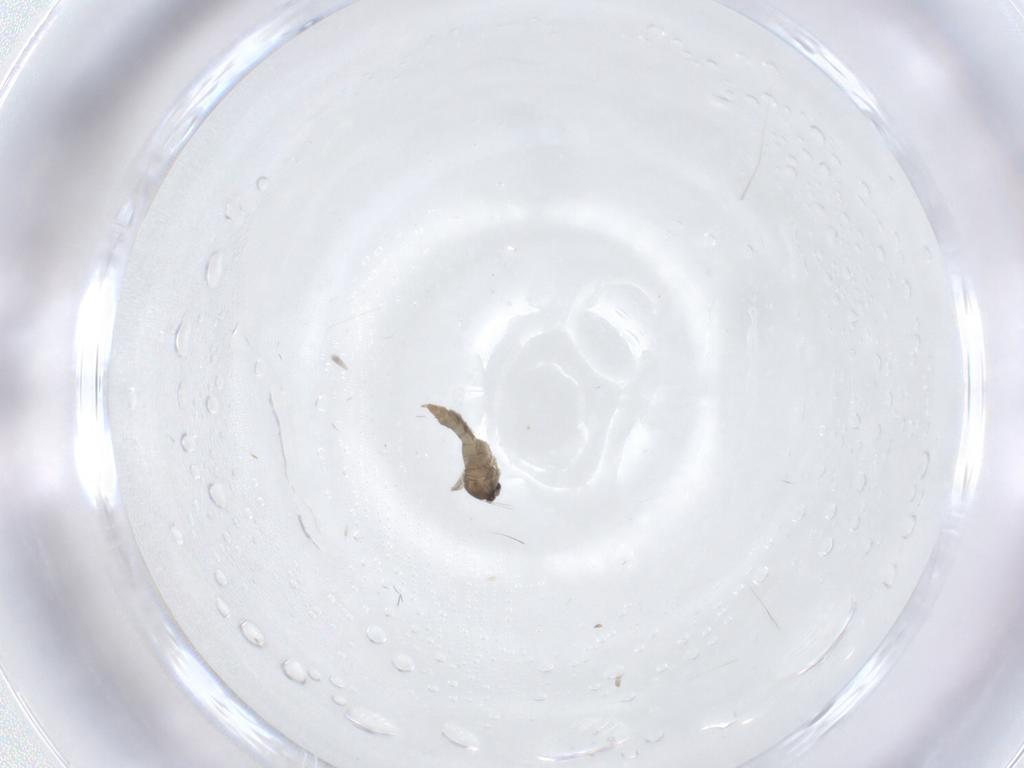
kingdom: Animalia
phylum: Arthropoda
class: Insecta
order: Diptera
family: Cecidomyiidae
